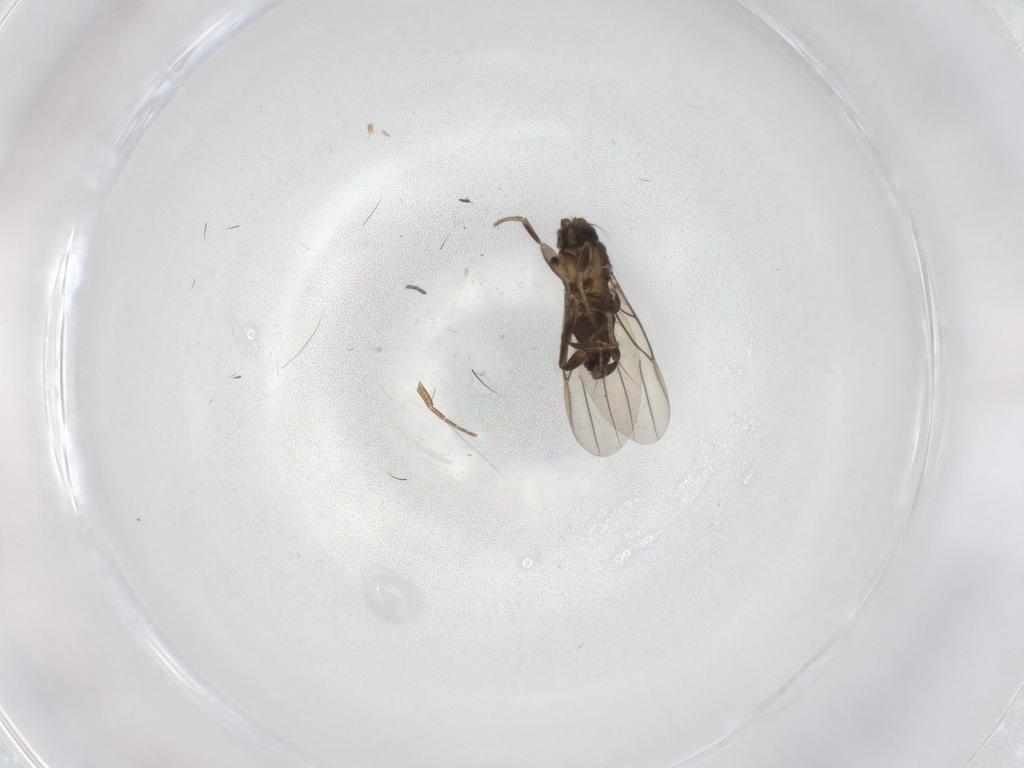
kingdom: Animalia
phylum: Arthropoda
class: Insecta
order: Diptera
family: Phoridae
